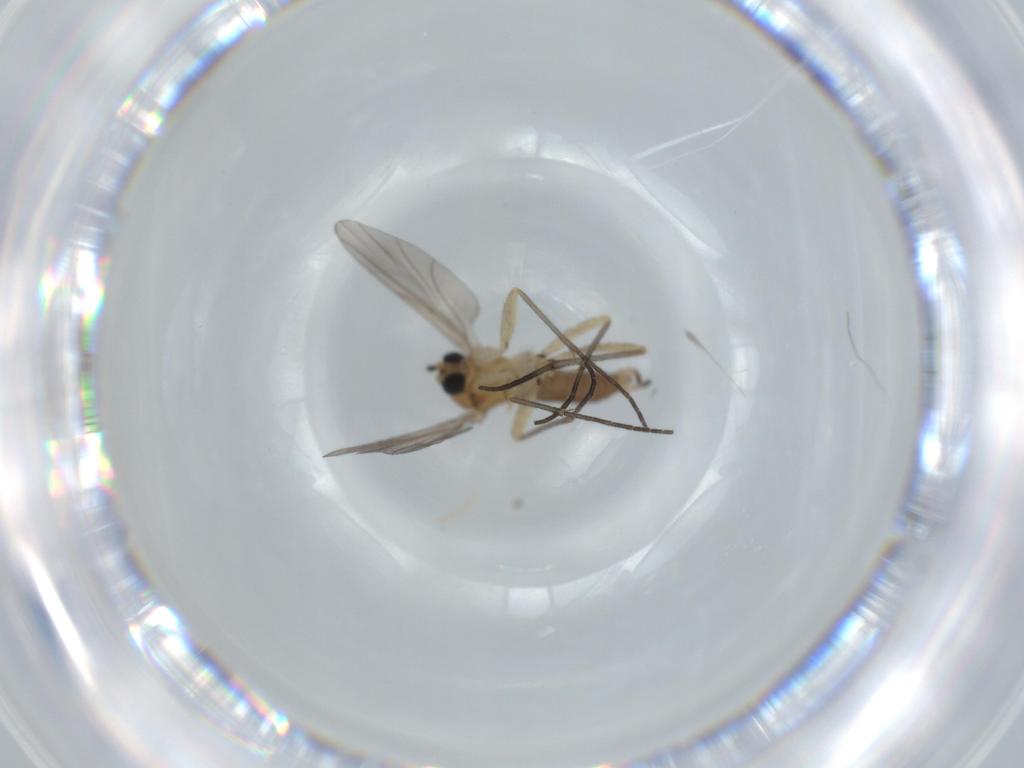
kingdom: Animalia
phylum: Arthropoda
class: Insecta
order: Diptera
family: Sciaridae
